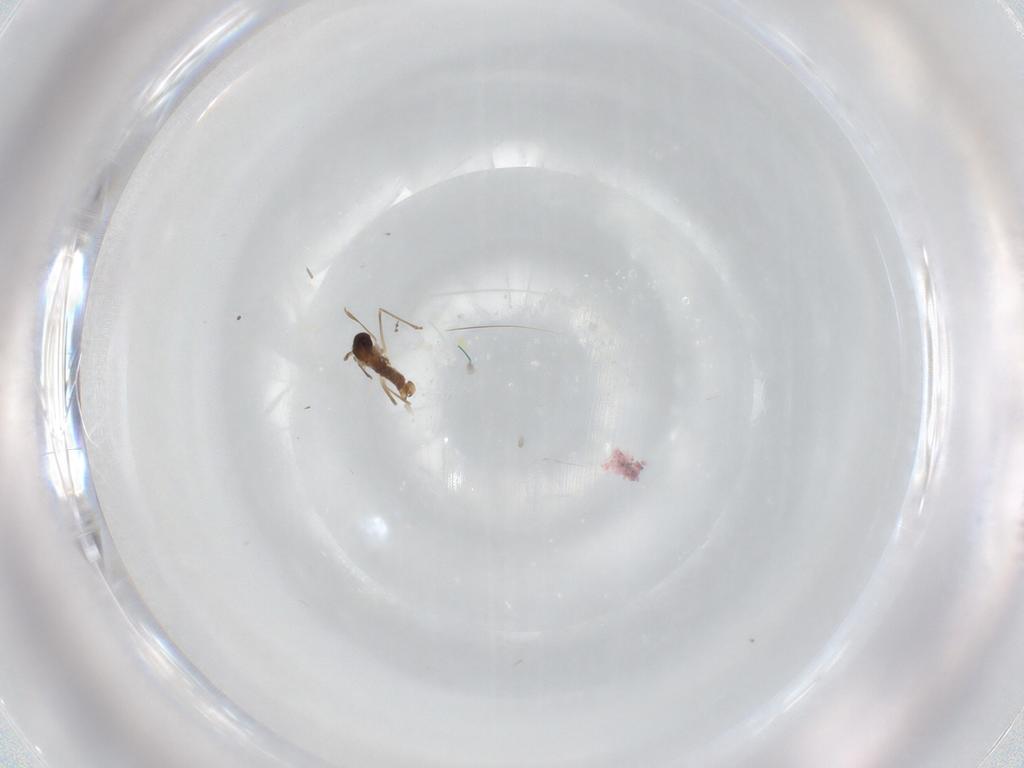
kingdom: Animalia
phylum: Arthropoda
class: Insecta
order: Diptera
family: Cecidomyiidae
